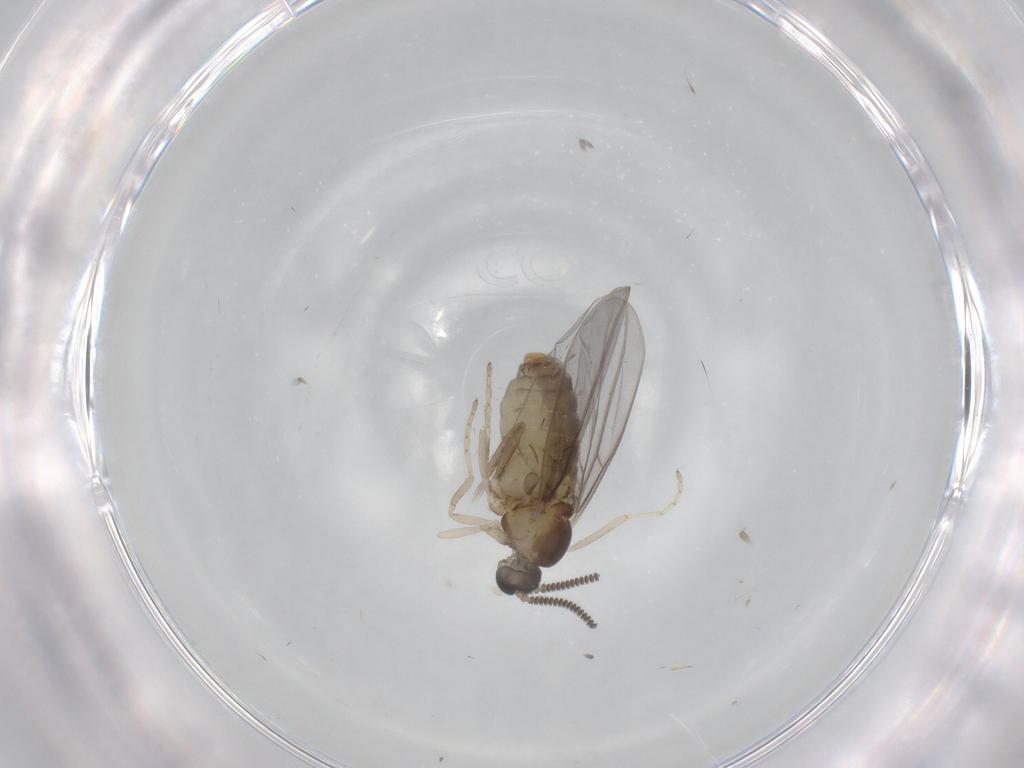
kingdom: Animalia
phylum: Arthropoda
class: Insecta
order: Diptera
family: Cecidomyiidae
